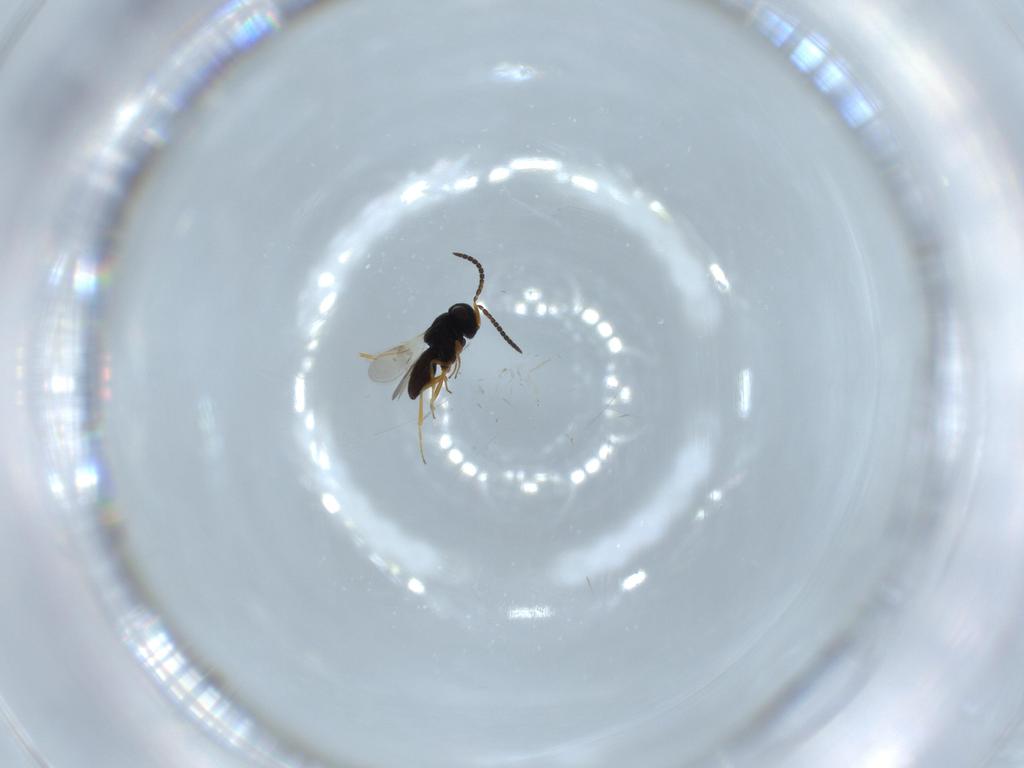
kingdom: Animalia
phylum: Arthropoda
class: Insecta
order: Hymenoptera
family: Scelionidae
